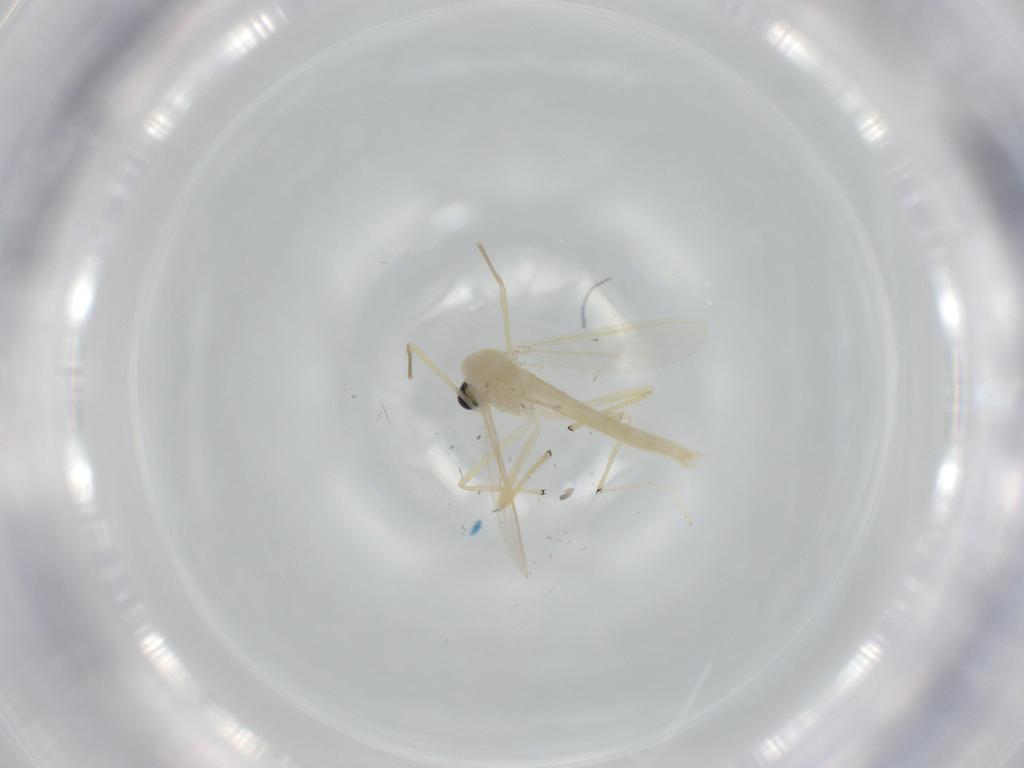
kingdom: Animalia
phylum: Arthropoda
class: Insecta
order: Diptera
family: Chironomidae
